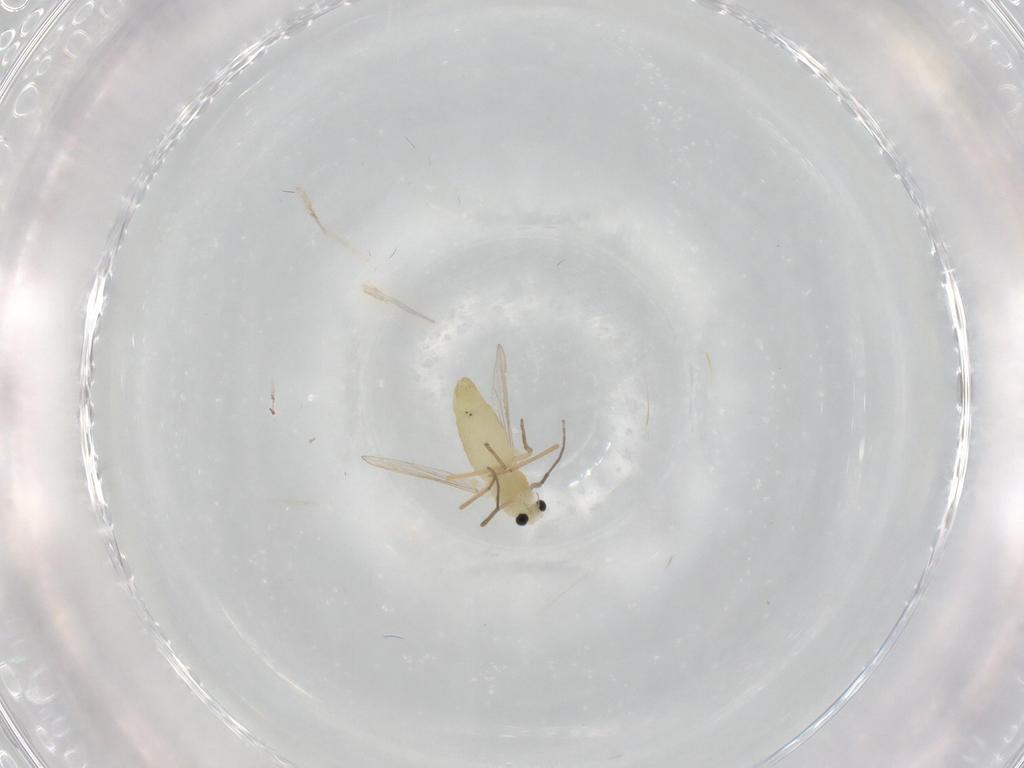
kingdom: Animalia
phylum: Arthropoda
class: Insecta
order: Diptera
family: Chironomidae
